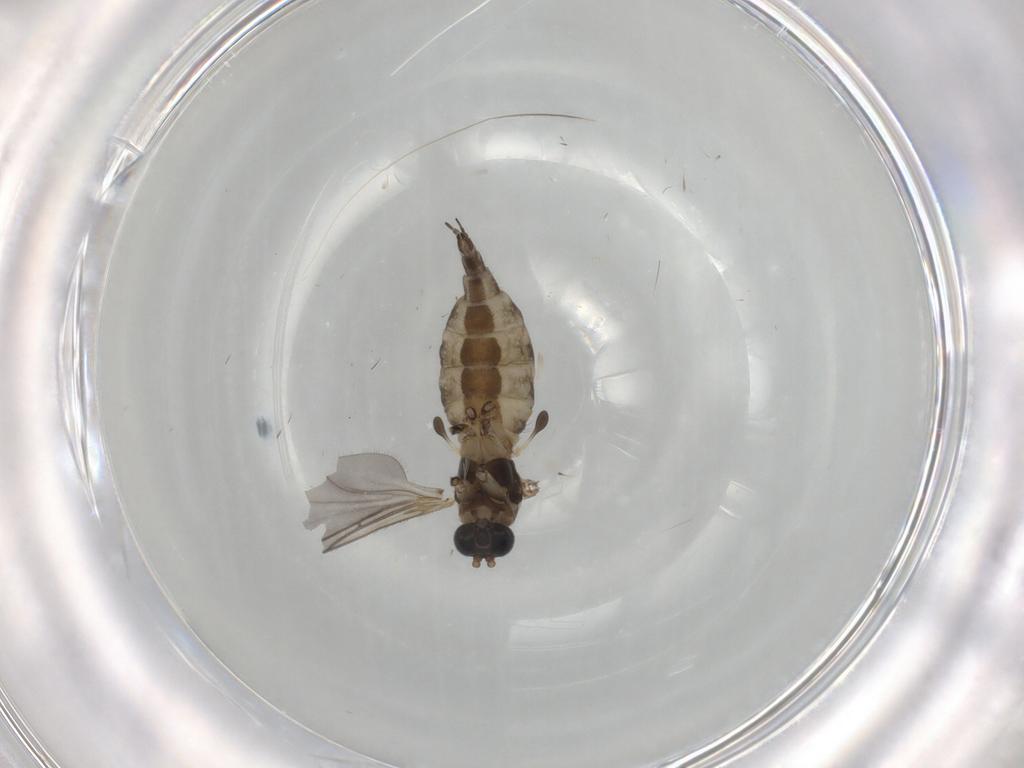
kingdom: Animalia
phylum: Arthropoda
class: Insecta
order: Diptera
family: Sciaridae
